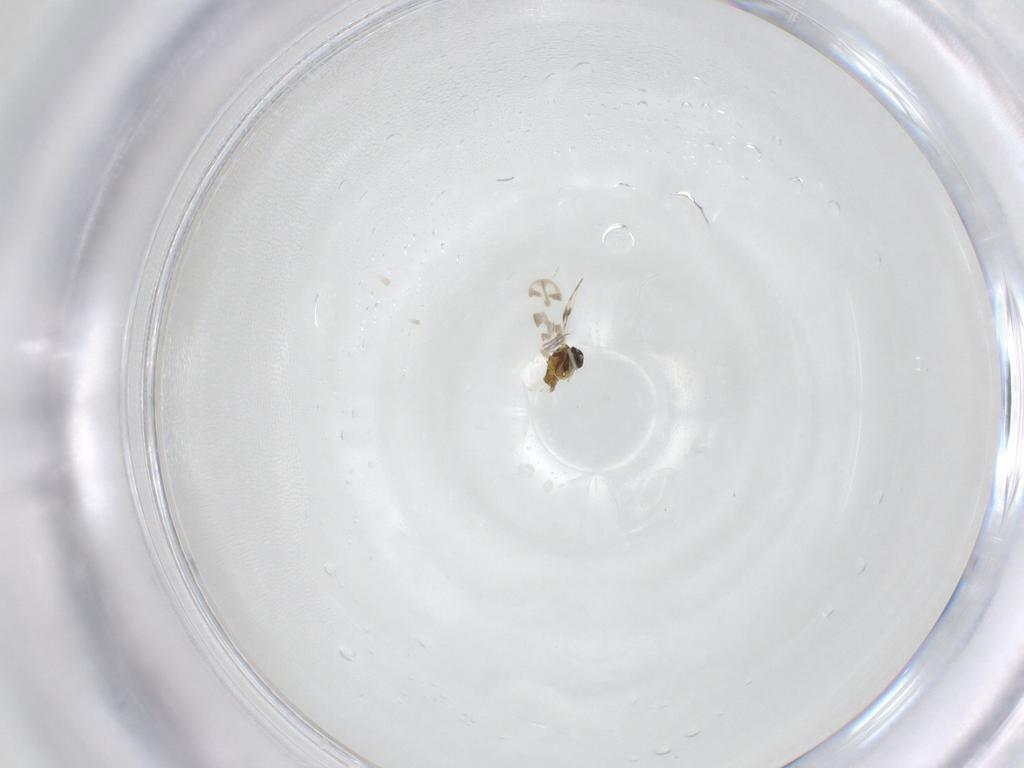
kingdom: Animalia
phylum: Arthropoda
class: Insecta
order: Hemiptera
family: Aleyrodidae
